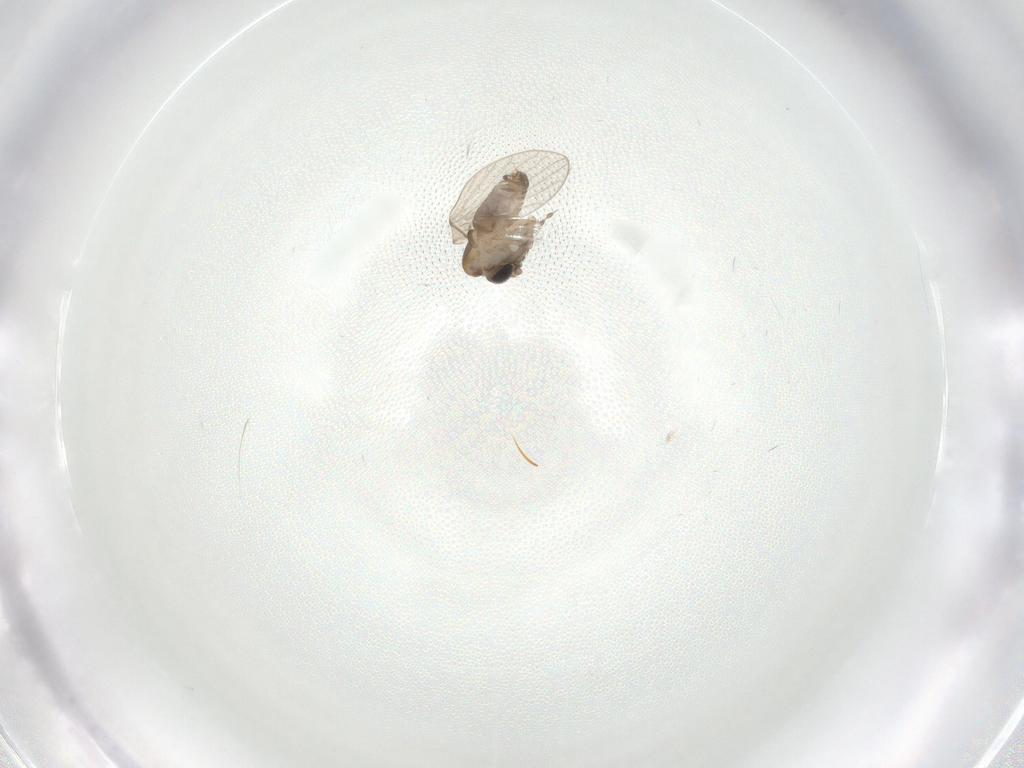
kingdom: Animalia
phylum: Arthropoda
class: Insecta
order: Diptera
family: Psychodidae
